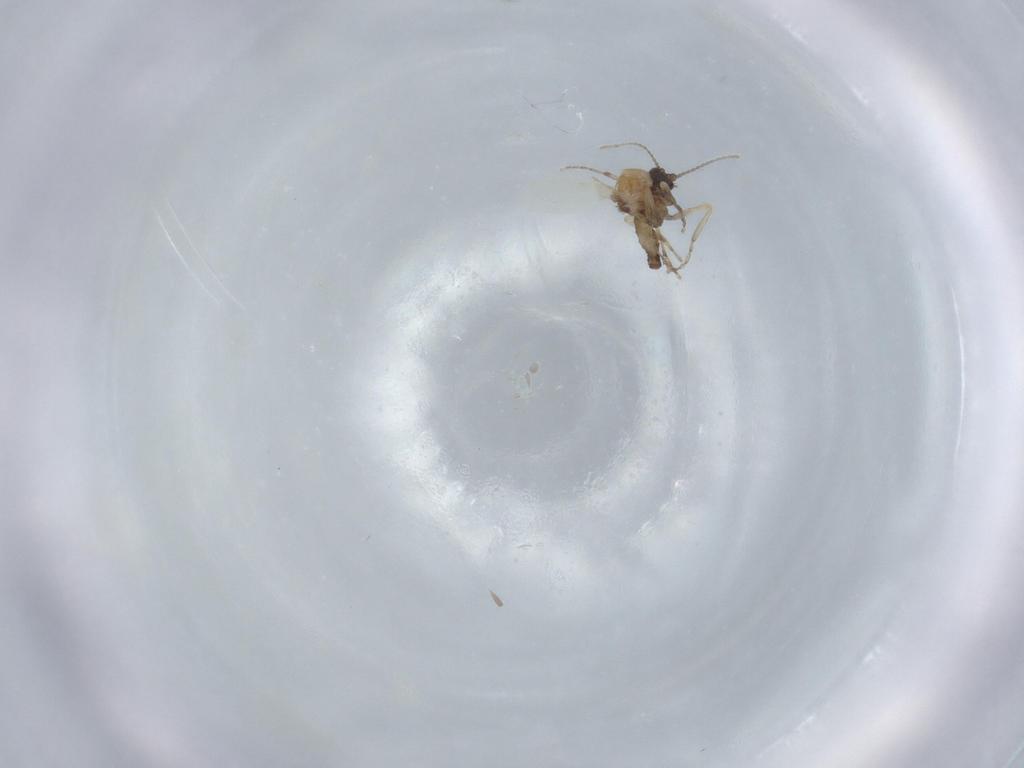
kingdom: Animalia
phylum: Arthropoda
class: Insecta
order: Diptera
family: Ceratopogonidae
